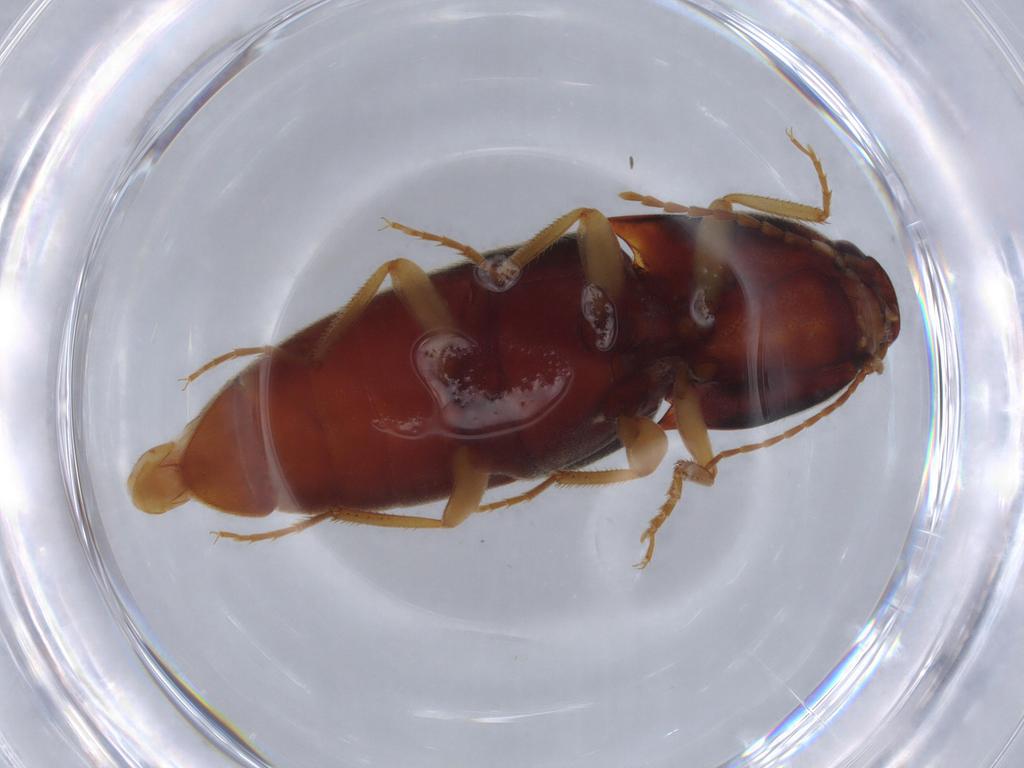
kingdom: Animalia
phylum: Arthropoda
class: Insecta
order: Coleoptera
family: Elateridae
